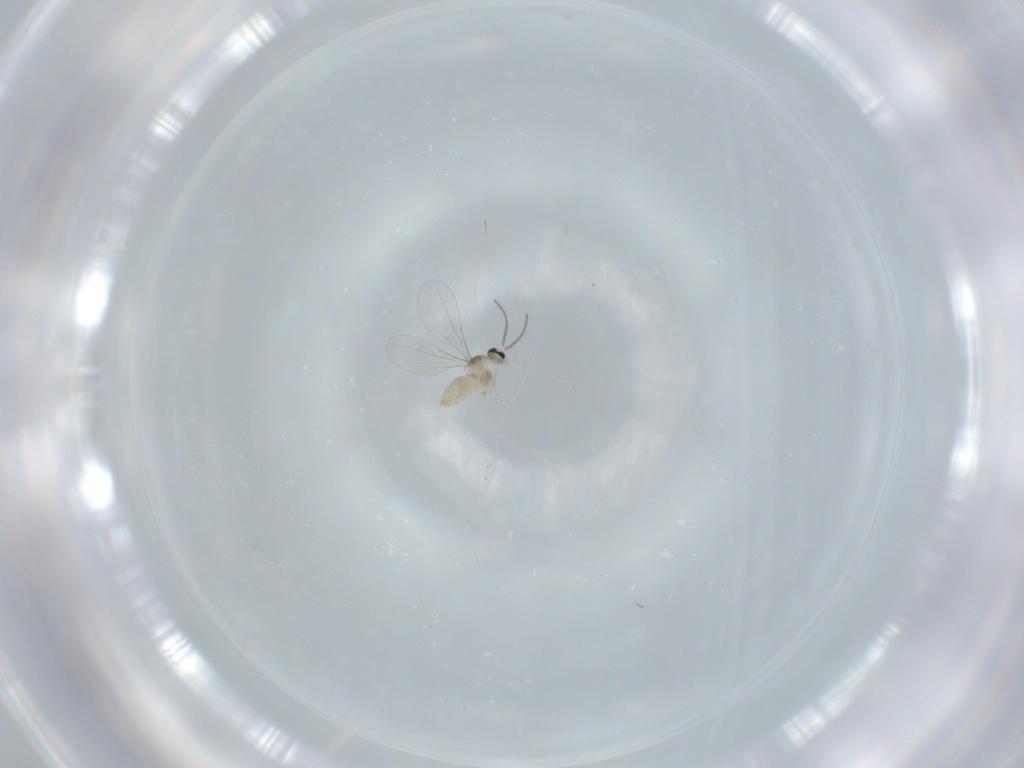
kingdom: Animalia
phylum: Arthropoda
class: Insecta
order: Diptera
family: Cecidomyiidae
